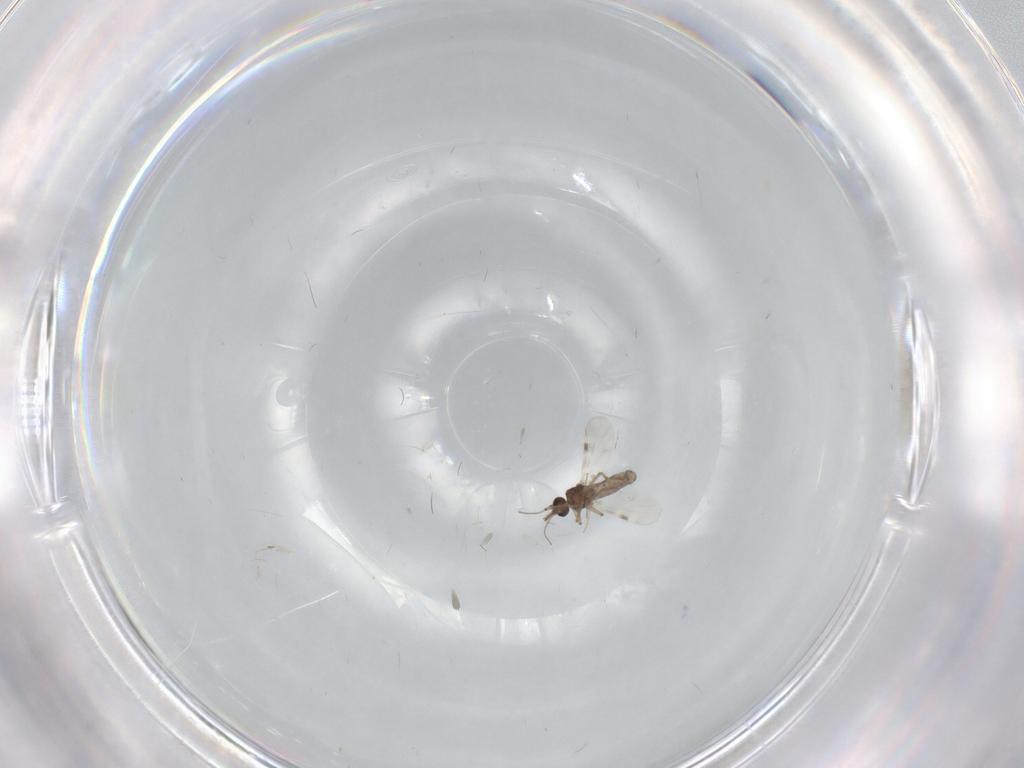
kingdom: Animalia
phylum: Arthropoda
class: Insecta
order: Diptera
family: Cecidomyiidae
